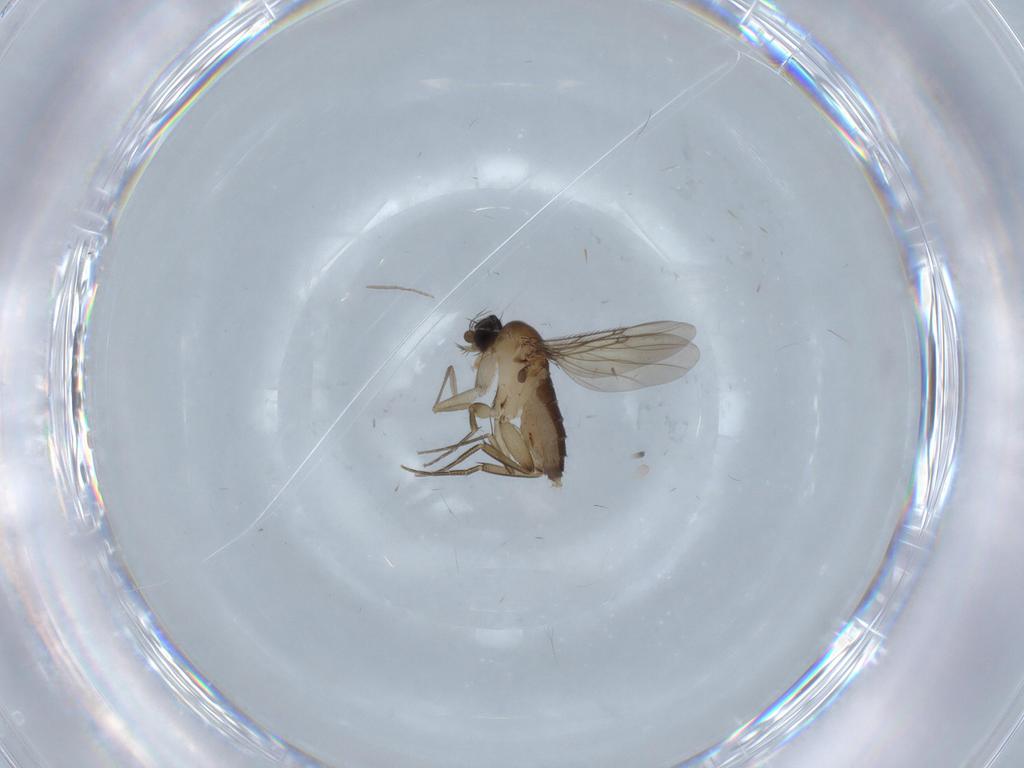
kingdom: Animalia
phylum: Arthropoda
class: Insecta
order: Diptera
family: Phoridae
